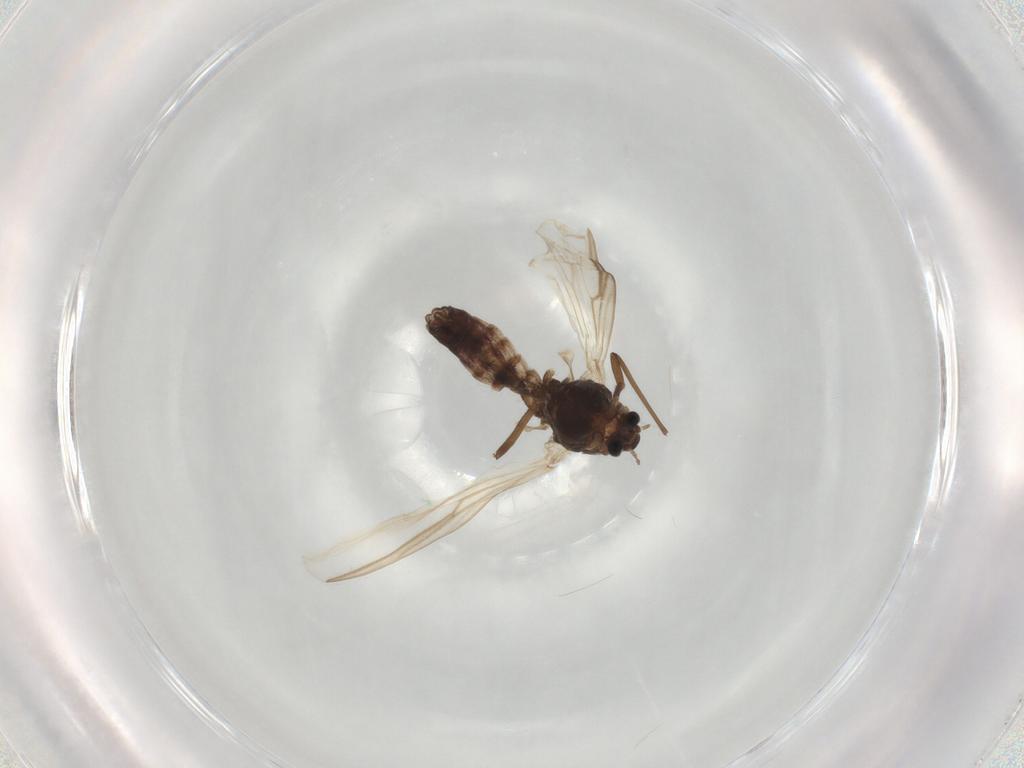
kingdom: Animalia
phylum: Arthropoda
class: Insecta
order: Diptera
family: Chironomidae
